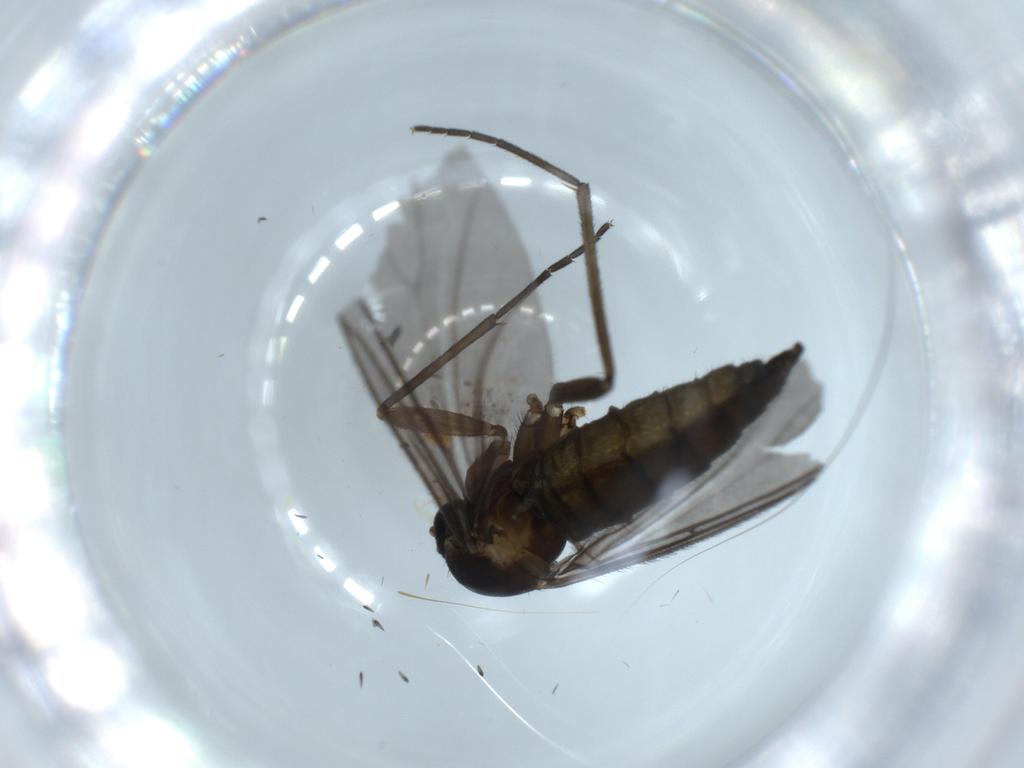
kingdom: Animalia
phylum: Arthropoda
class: Insecta
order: Diptera
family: Sciaridae
